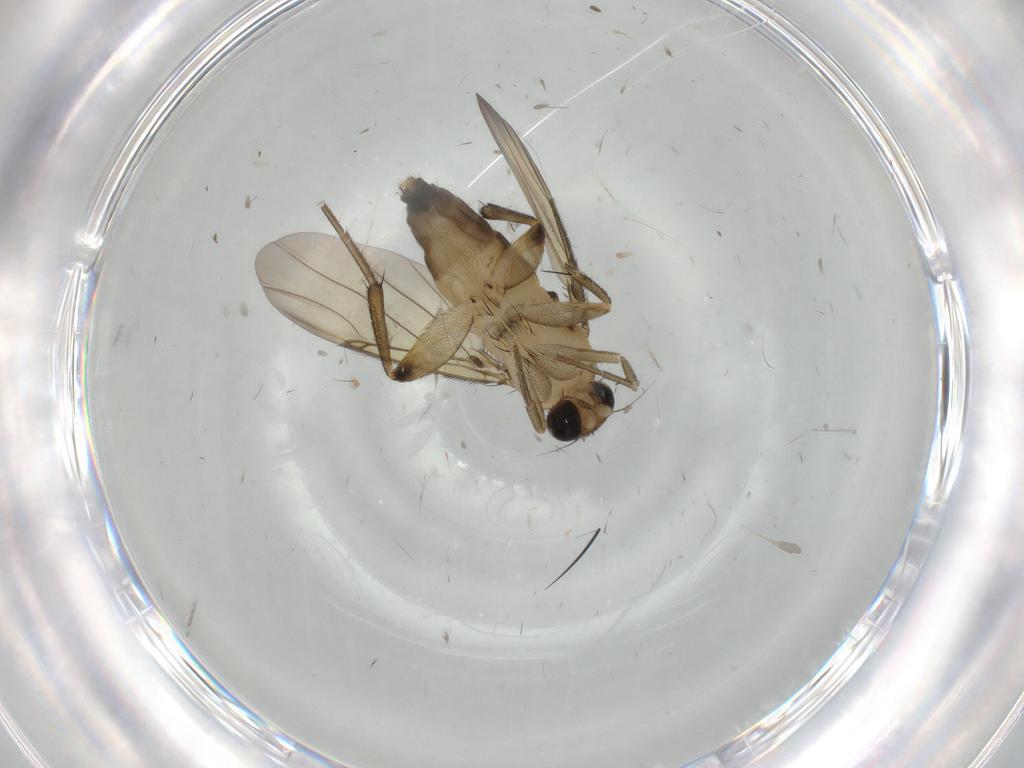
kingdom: Animalia
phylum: Arthropoda
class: Insecta
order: Diptera
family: Phoridae
